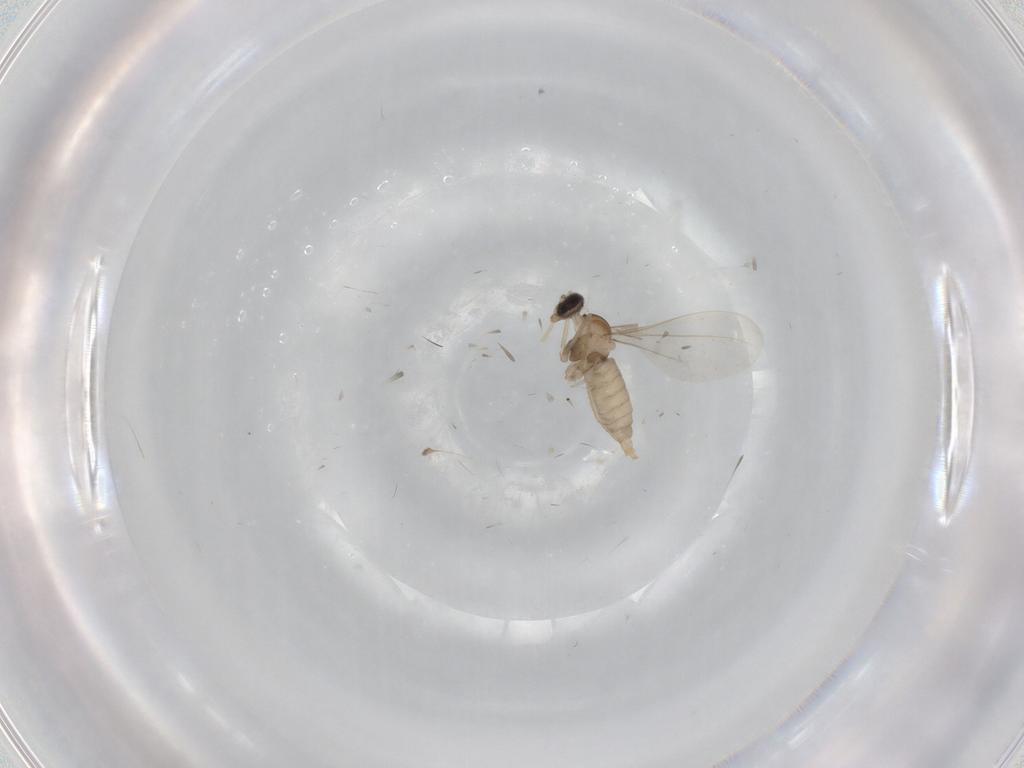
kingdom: Animalia
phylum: Arthropoda
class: Insecta
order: Diptera
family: Cecidomyiidae
